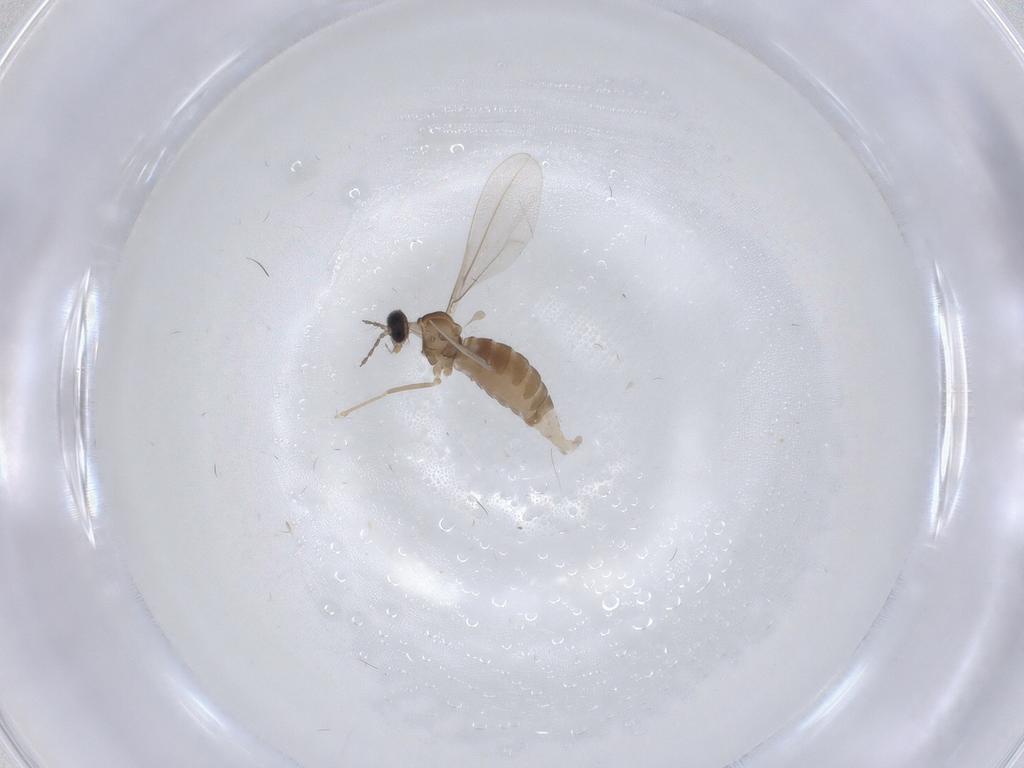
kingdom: Animalia
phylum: Arthropoda
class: Insecta
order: Diptera
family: Cecidomyiidae
